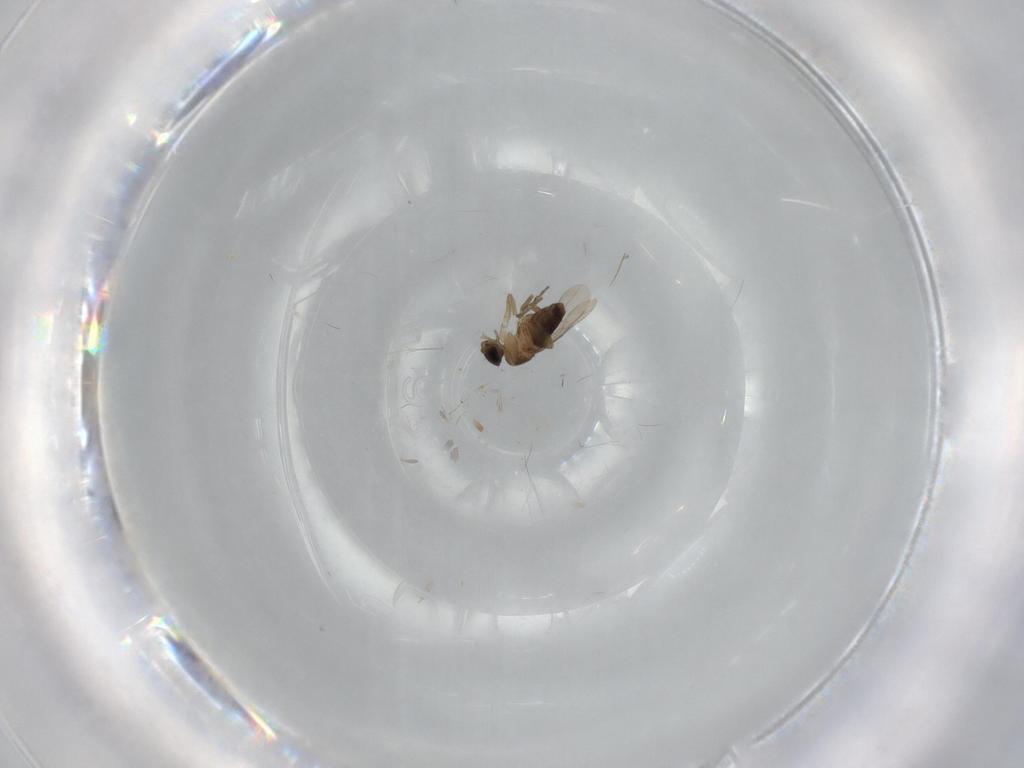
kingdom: Animalia
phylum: Arthropoda
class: Insecta
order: Diptera
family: Phoridae
